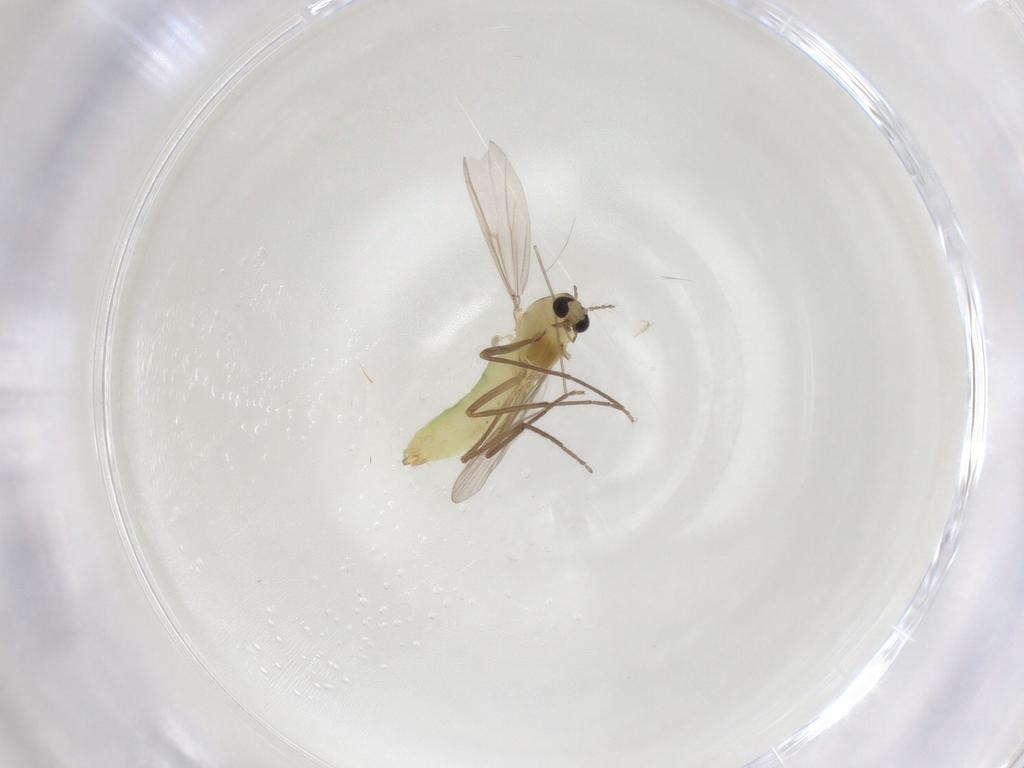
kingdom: Animalia
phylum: Arthropoda
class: Insecta
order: Diptera
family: Chironomidae
